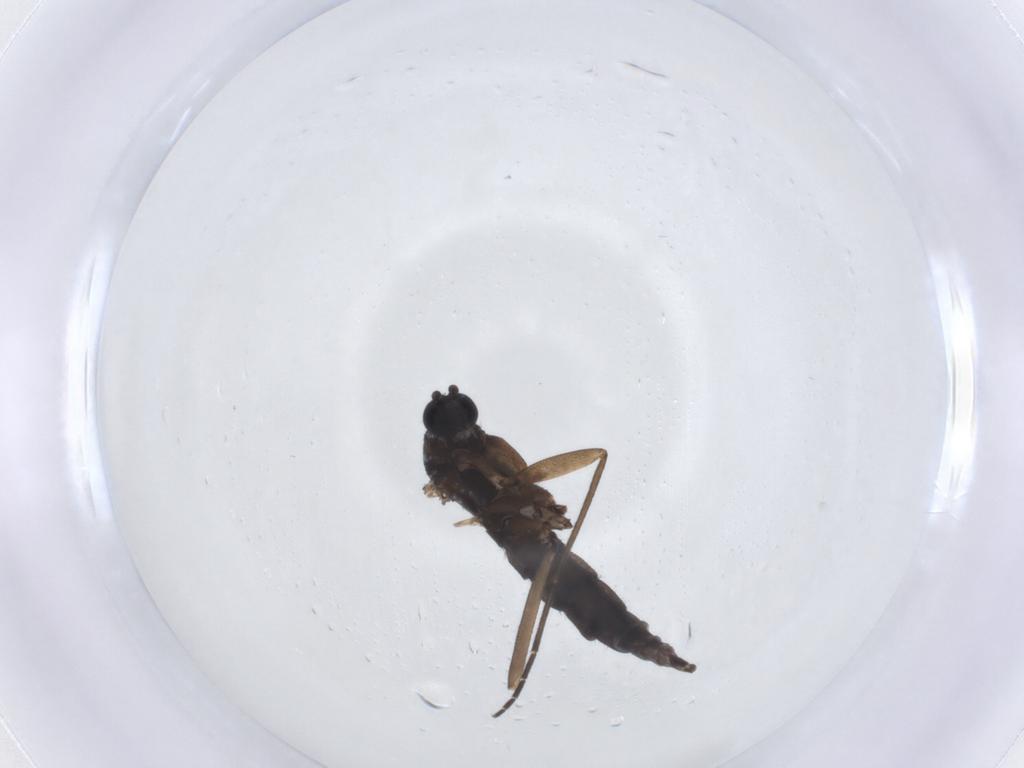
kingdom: Animalia
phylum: Arthropoda
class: Insecta
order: Diptera
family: Sciaridae
